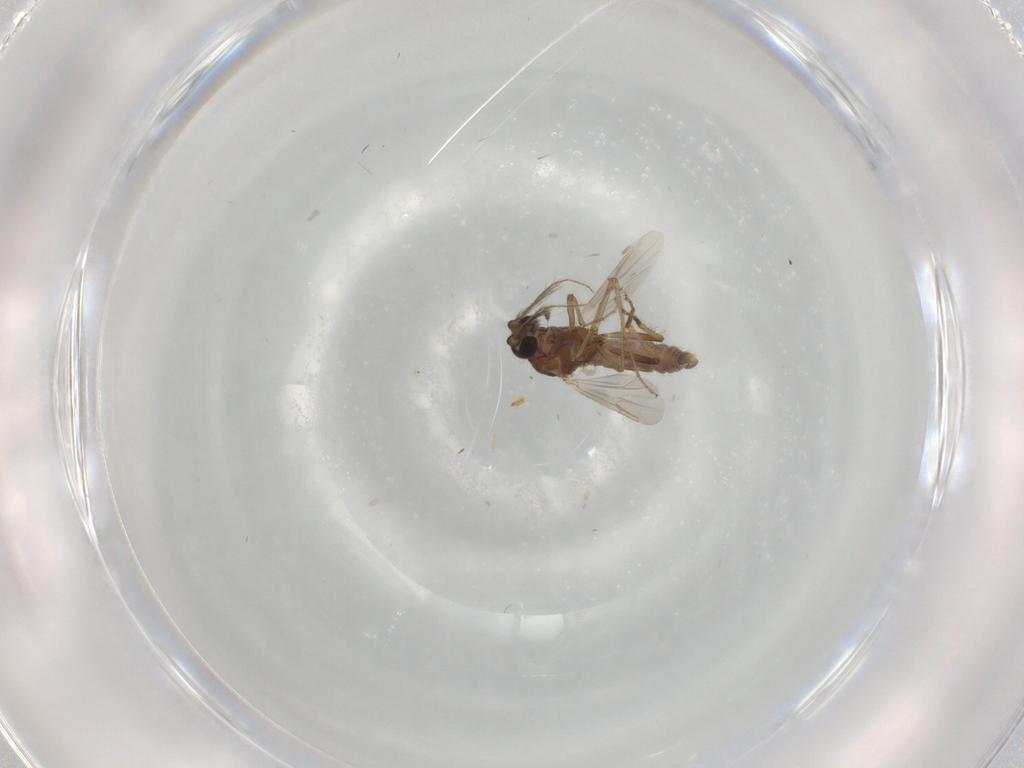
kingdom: Animalia
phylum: Arthropoda
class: Insecta
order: Diptera
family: Ceratopogonidae
